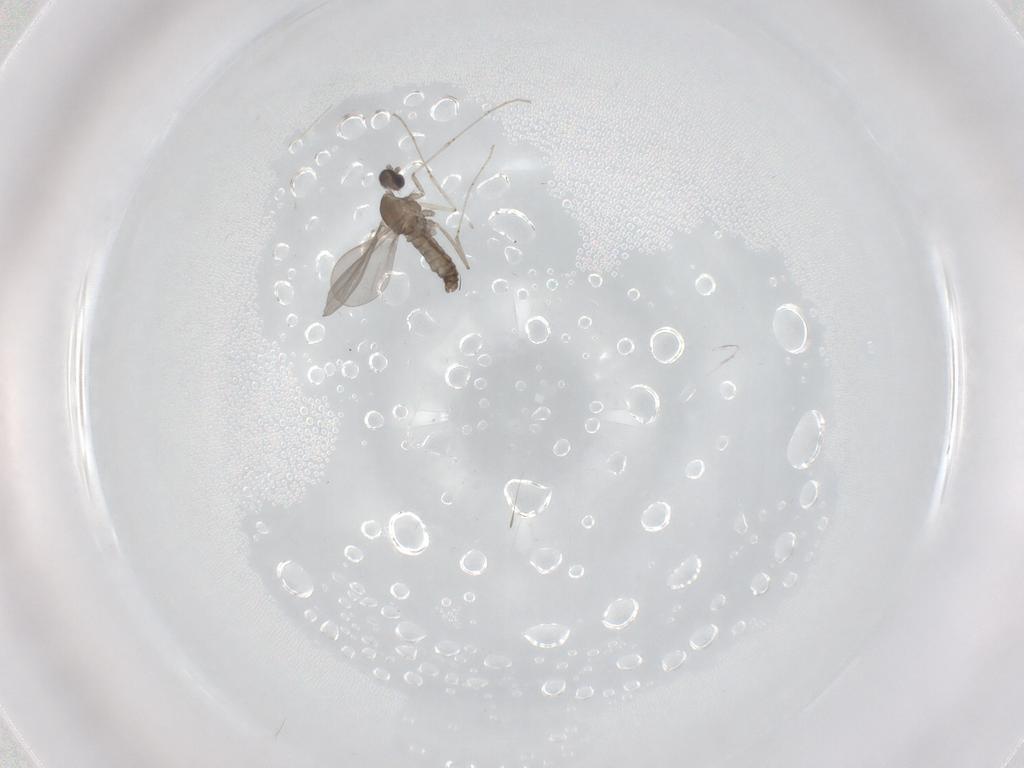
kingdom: Animalia
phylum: Arthropoda
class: Insecta
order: Diptera
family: Cecidomyiidae
